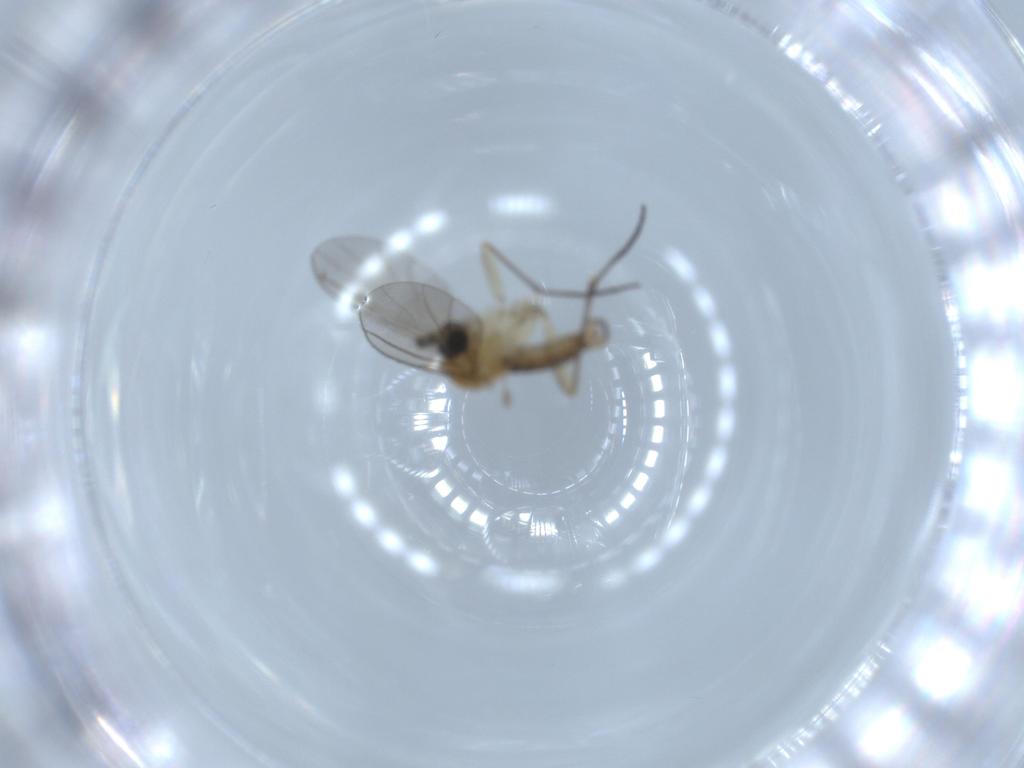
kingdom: Animalia
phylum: Arthropoda
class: Insecta
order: Diptera
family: Sciaridae
